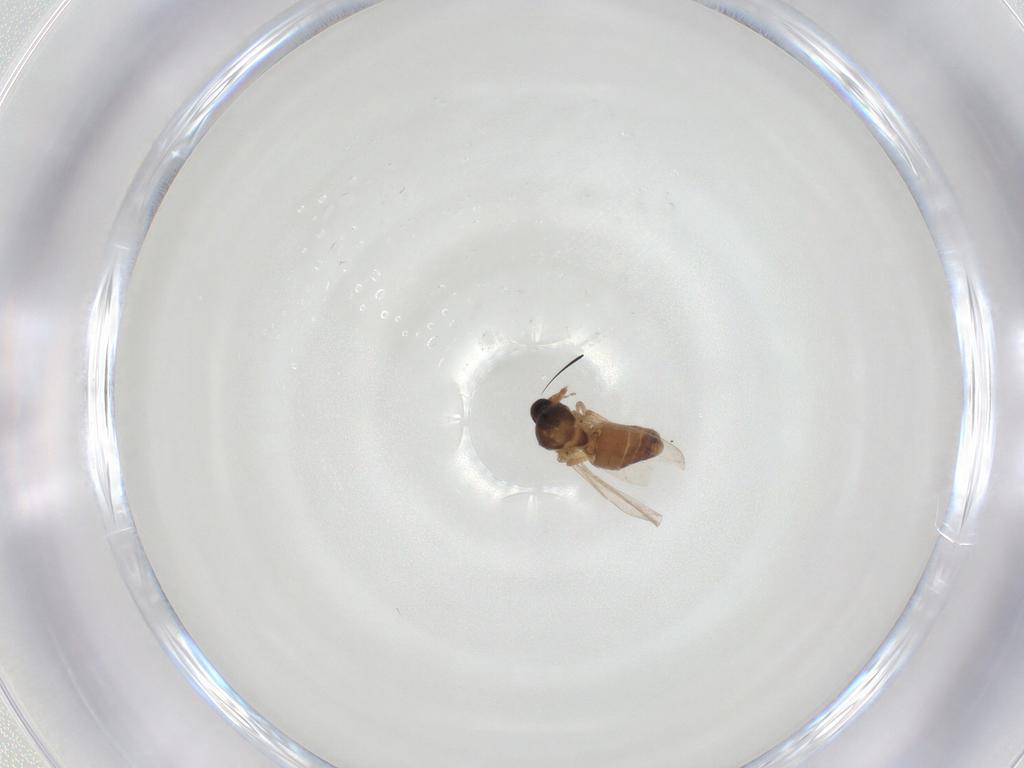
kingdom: Animalia
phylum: Arthropoda
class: Insecta
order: Diptera
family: Ceratopogonidae
